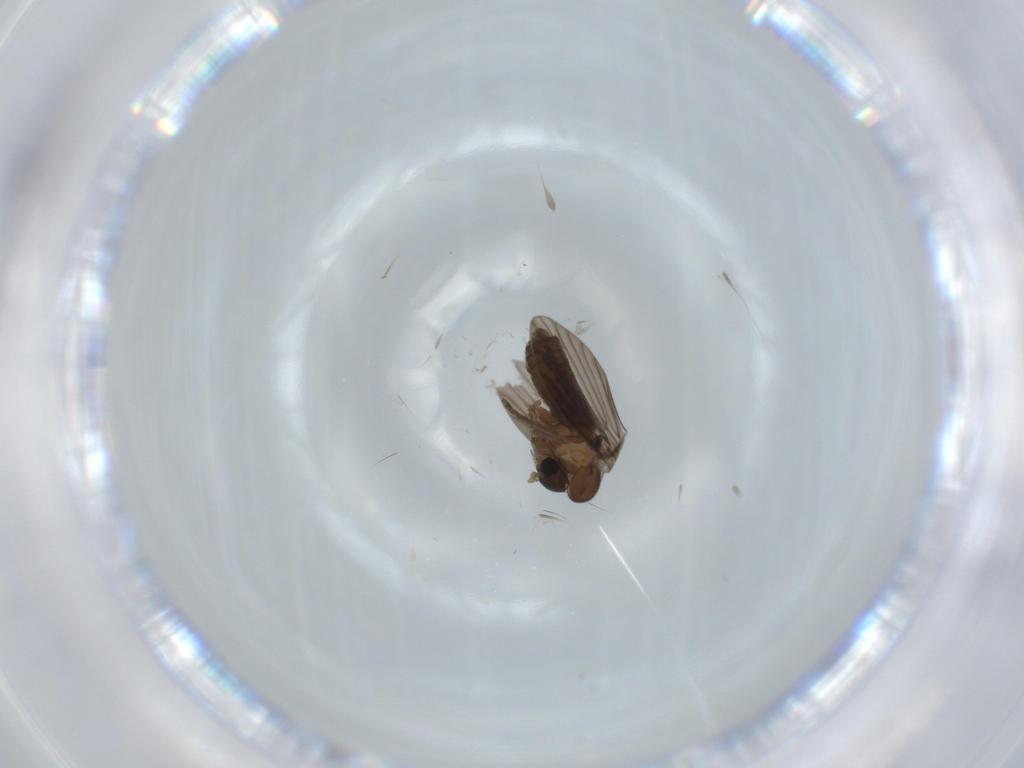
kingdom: Animalia
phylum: Arthropoda
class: Insecta
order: Diptera
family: Psychodidae
